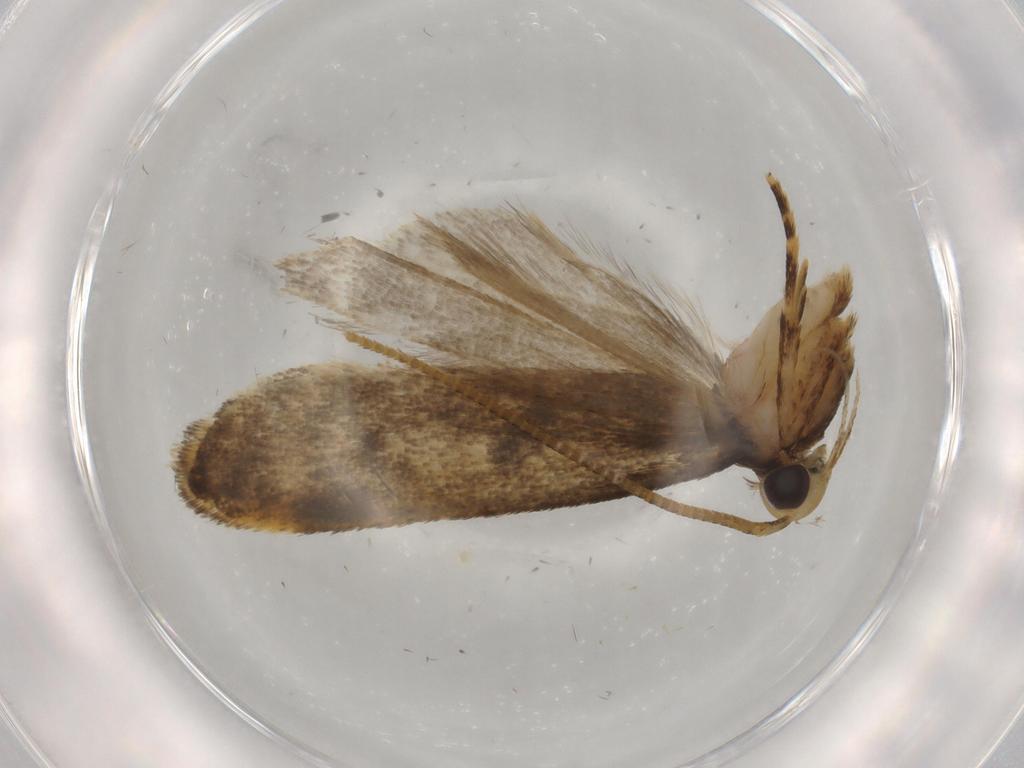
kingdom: Animalia
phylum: Arthropoda
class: Insecta
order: Lepidoptera
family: Autostichidae
